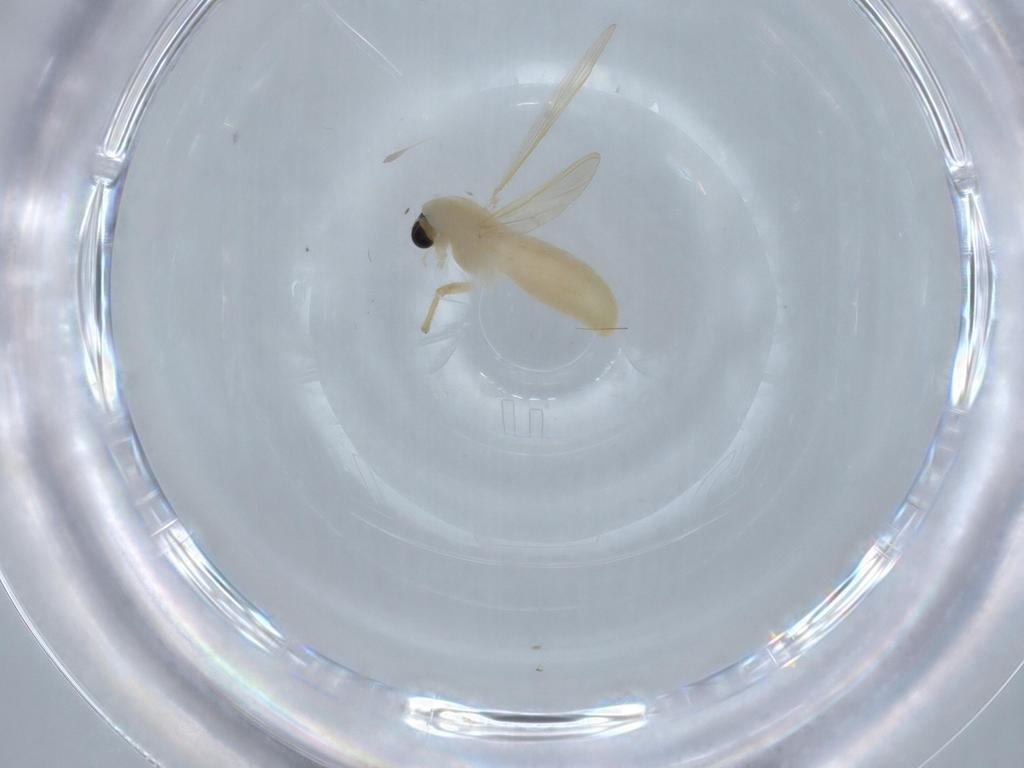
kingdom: Animalia
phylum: Arthropoda
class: Insecta
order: Diptera
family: Chironomidae
